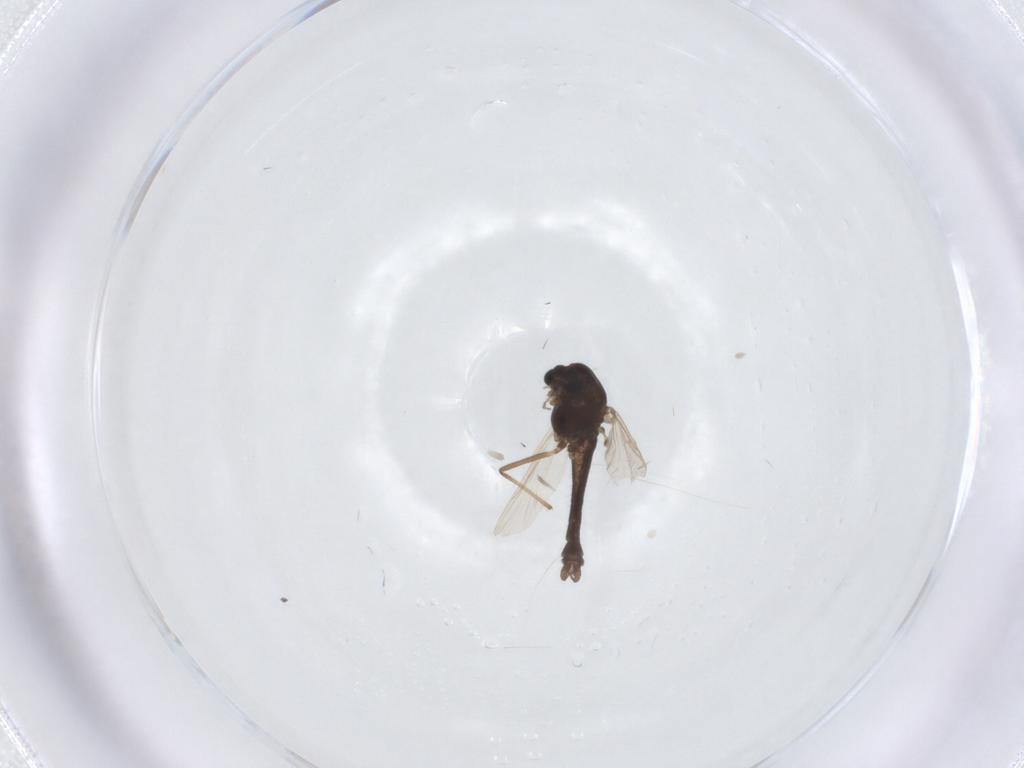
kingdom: Animalia
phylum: Arthropoda
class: Insecta
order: Diptera
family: Chironomidae
